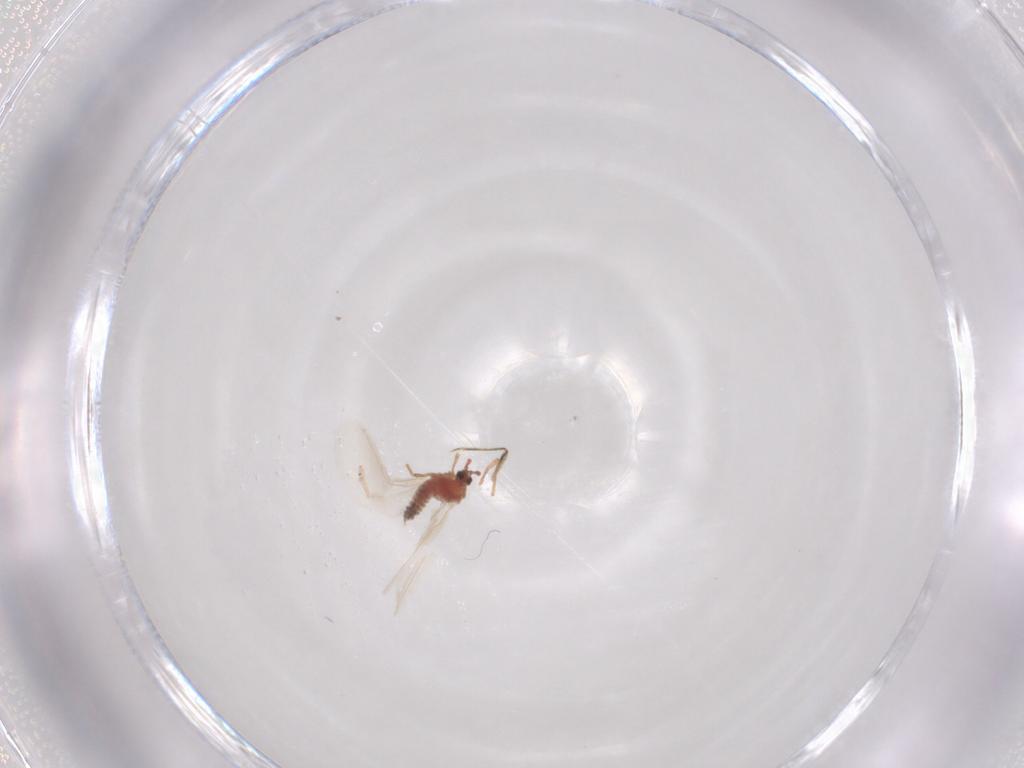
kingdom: Animalia
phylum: Arthropoda
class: Insecta
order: Neuroptera
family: Coniopterygidae
